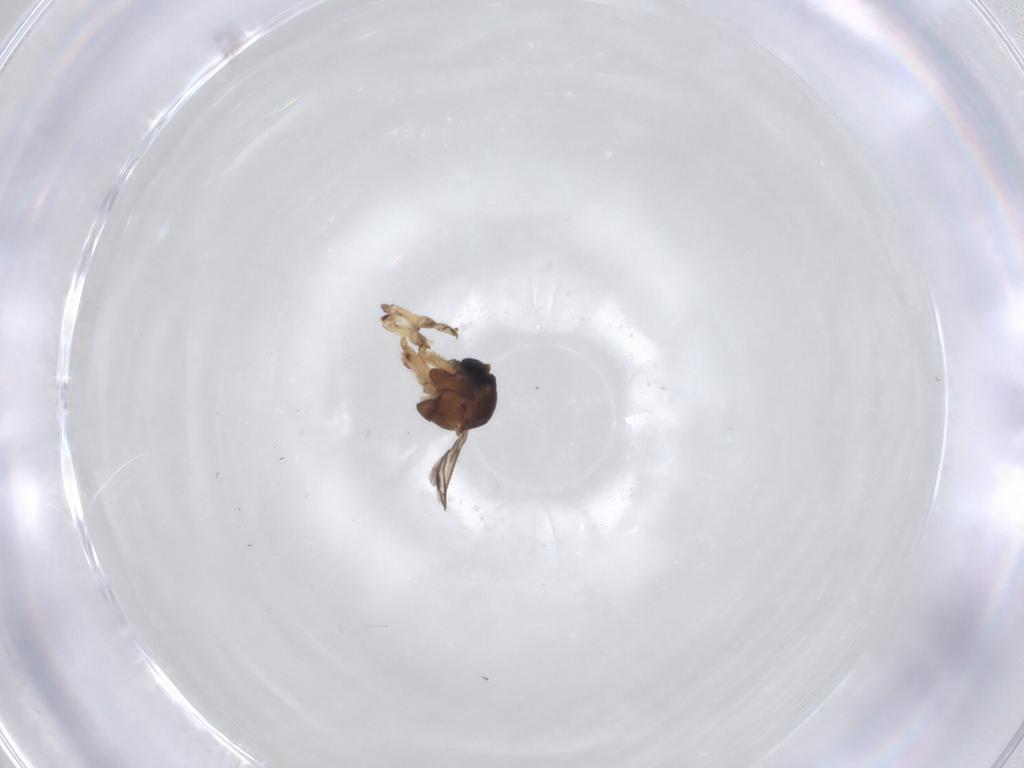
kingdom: Animalia
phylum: Arthropoda
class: Insecta
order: Diptera
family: Sciaridae
